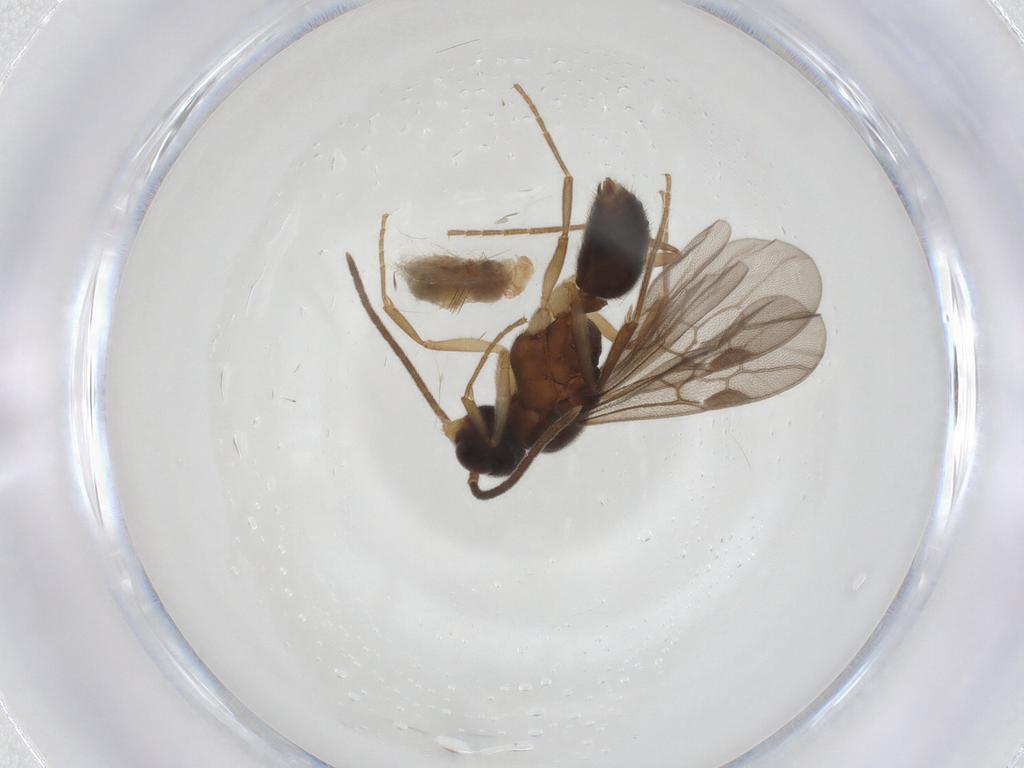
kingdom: Animalia
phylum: Arthropoda
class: Insecta
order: Hymenoptera
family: Formicidae
